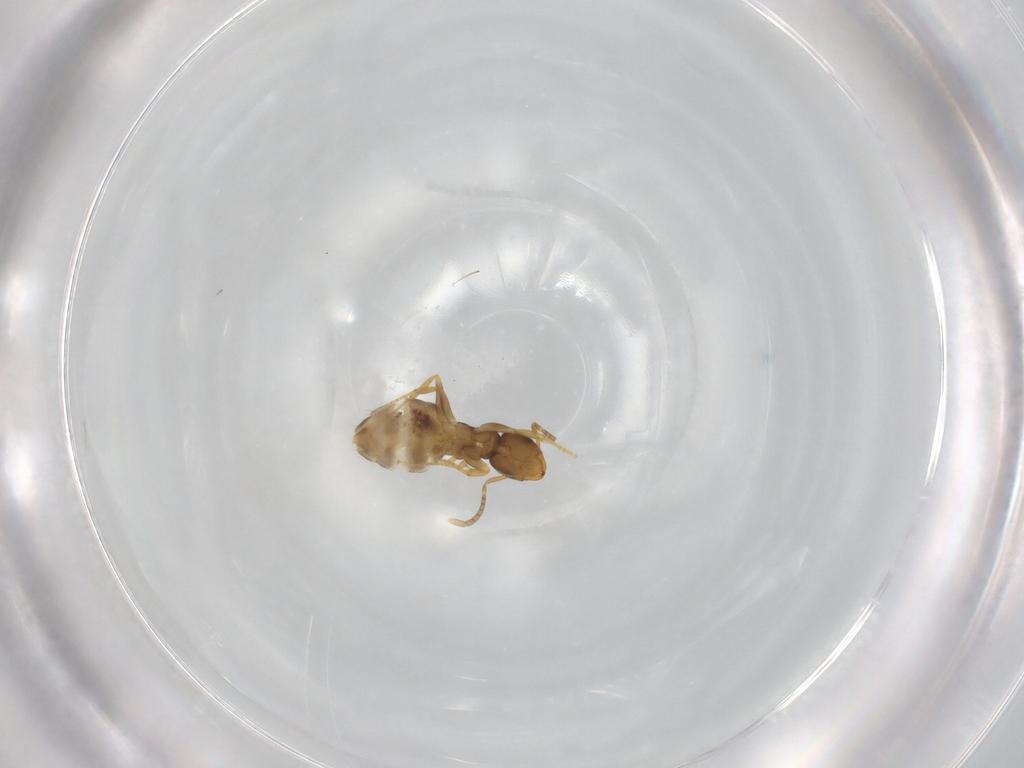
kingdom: Animalia
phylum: Arthropoda
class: Insecta
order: Hymenoptera
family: Formicidae
